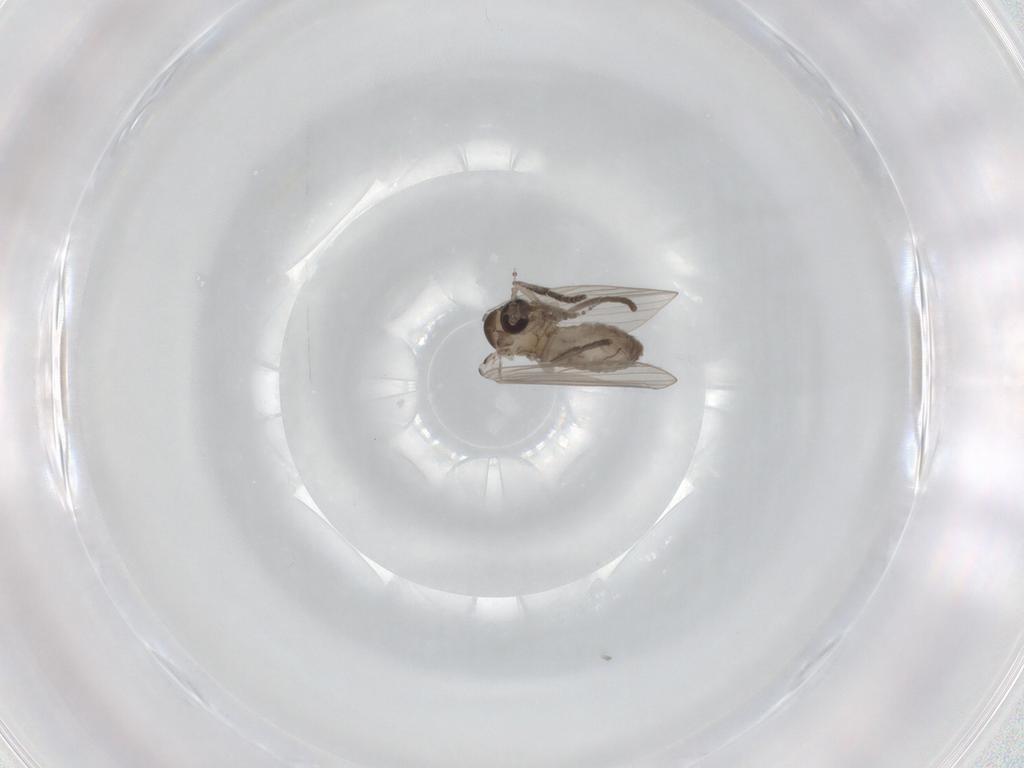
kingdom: Animalia
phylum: Arthropoda
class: Insecta
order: Diptera
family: Psychodidae
